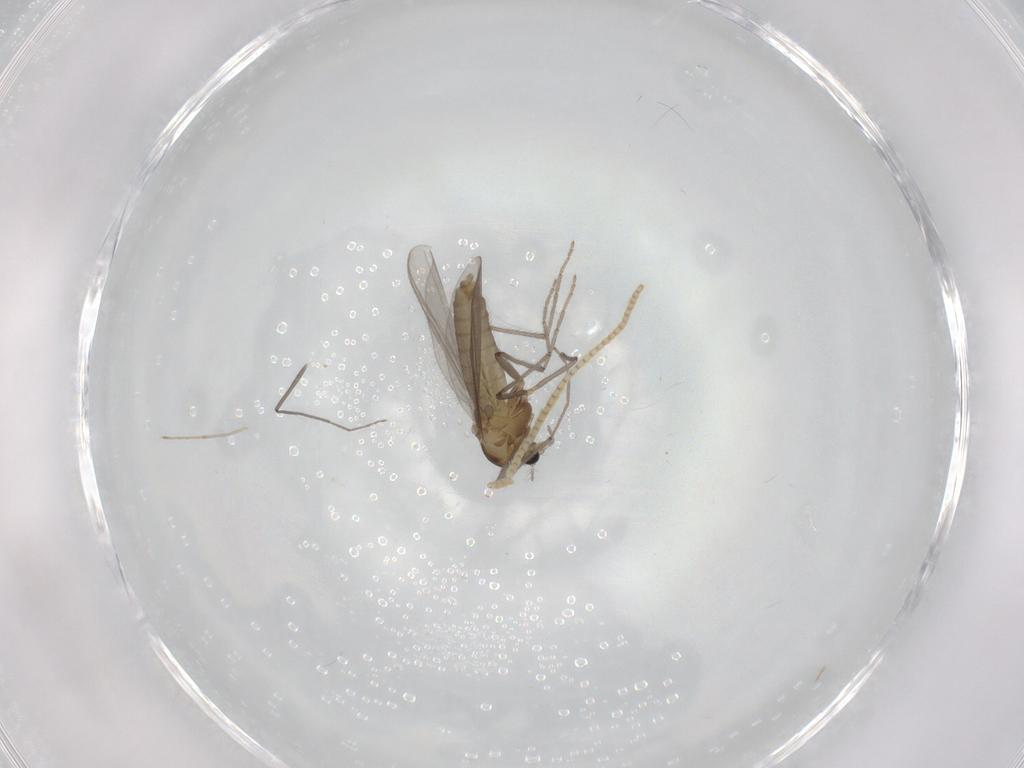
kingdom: Animalia
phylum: Arthropoda
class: Insecta
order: Diptera
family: Chironomidae
